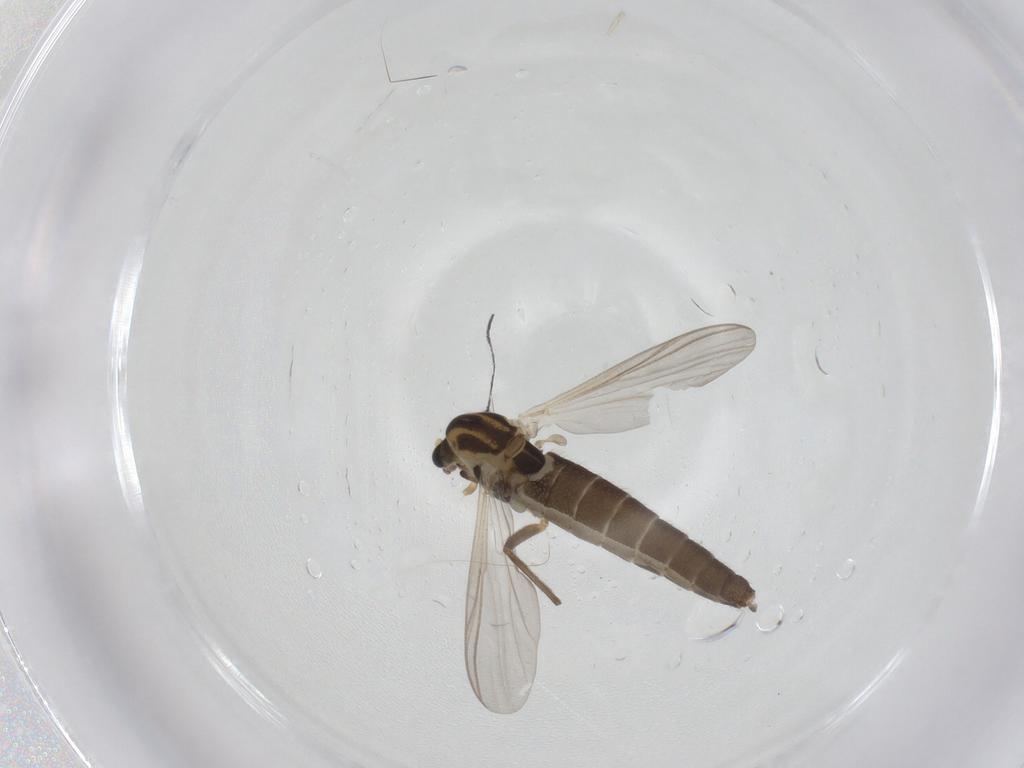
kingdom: Animalia
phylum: Arthropoda
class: Insecta
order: Diptera
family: Chironomidae
